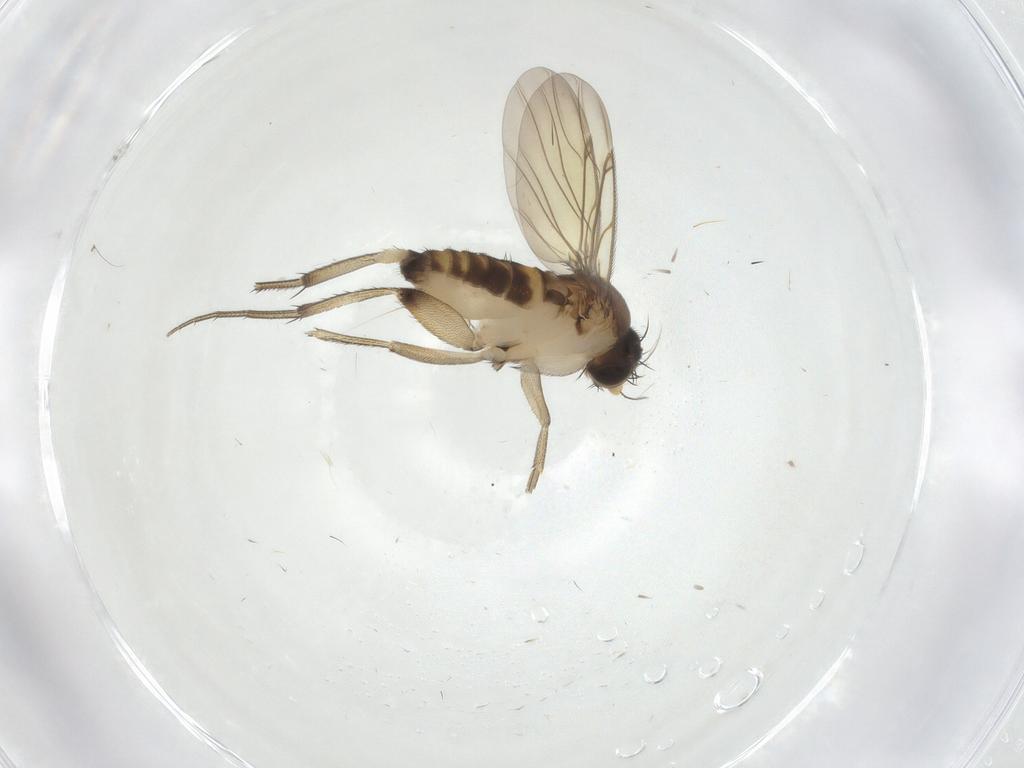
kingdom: Animalia
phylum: Arthropoda
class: Insecta
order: Diptera
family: Phoridae
